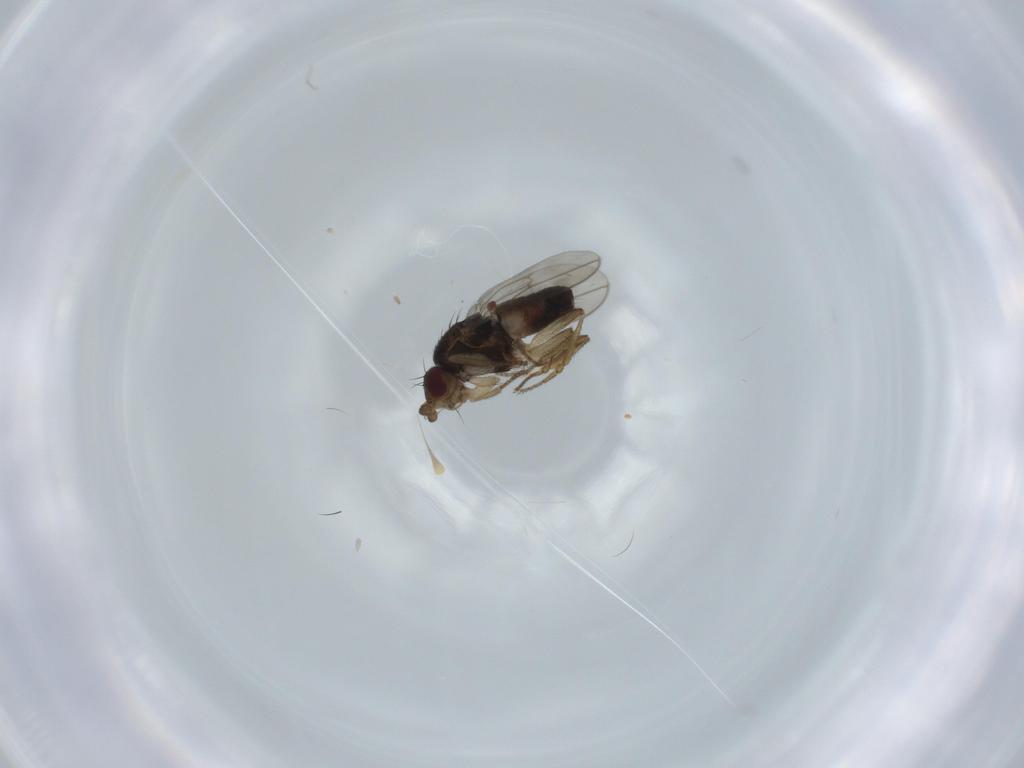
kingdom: Animalia
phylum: Arthropoda
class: Insecta
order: Diptera
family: Sphaeroceridae
